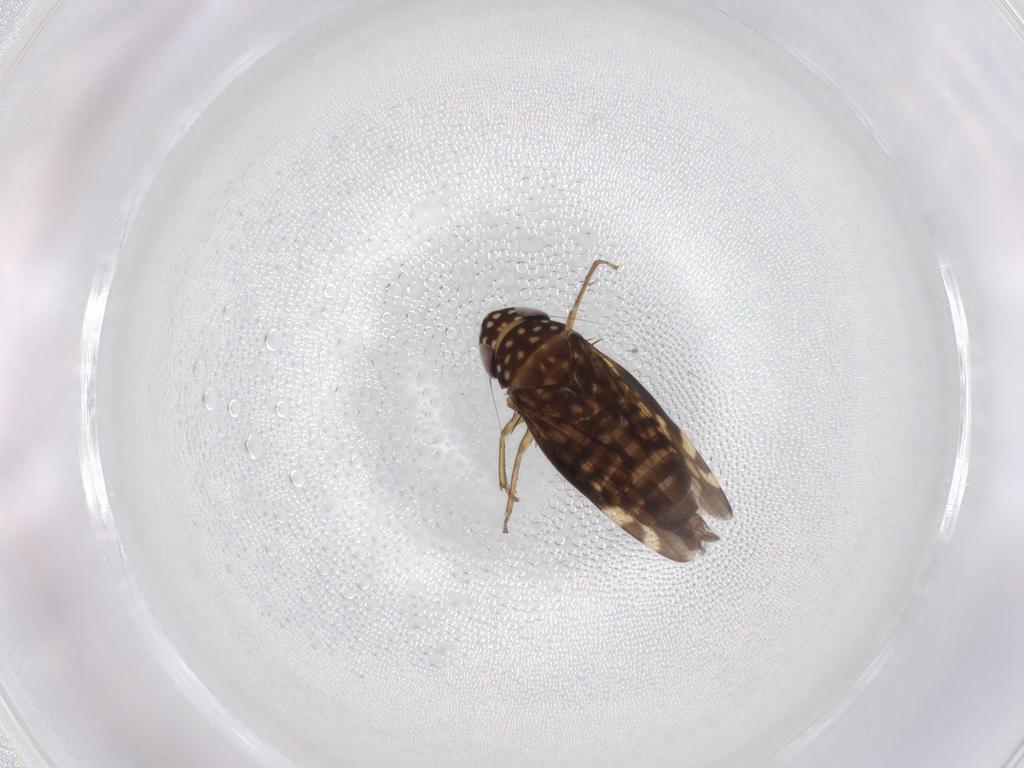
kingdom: Animalia
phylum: Arthropoda
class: Insecta
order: Hemiptera
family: Cicadellidae
